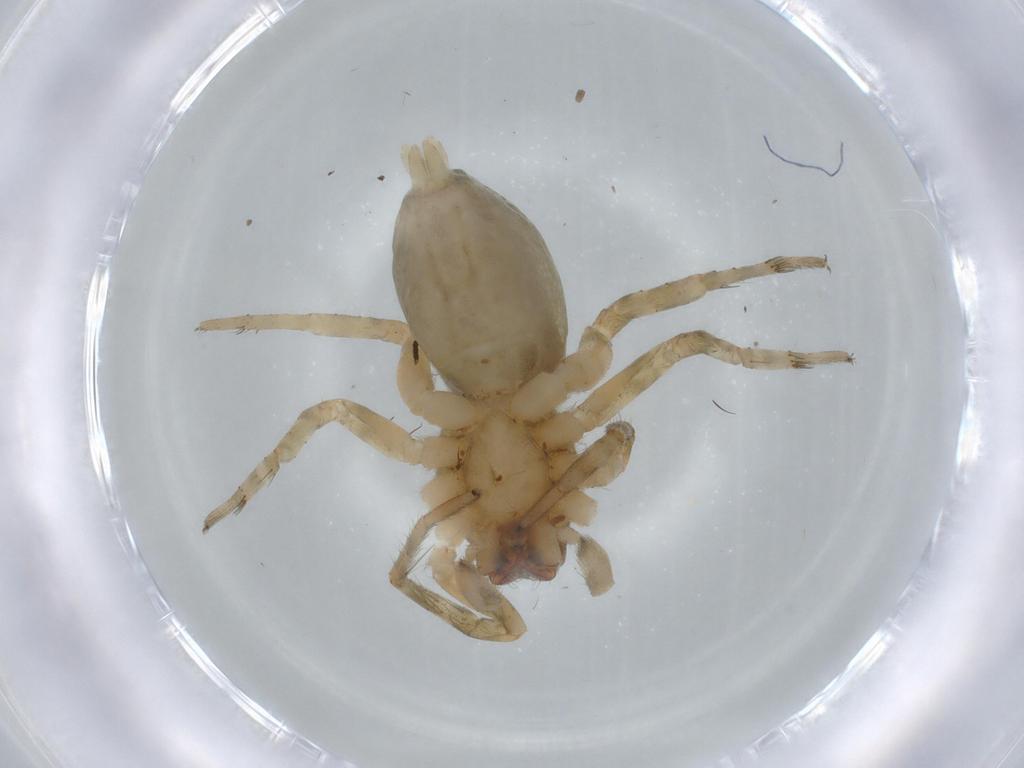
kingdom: Animalia
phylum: Arthropoda
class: Arachnida
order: Araneae
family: Anyphaenidae
